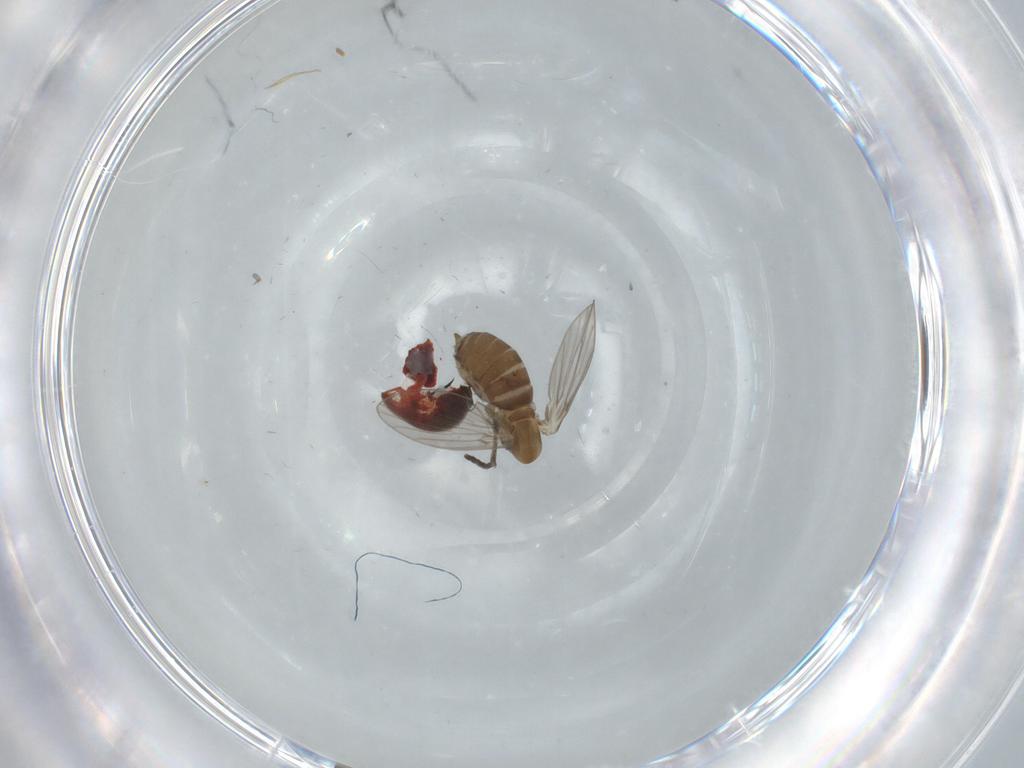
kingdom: Animalia
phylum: Arthropoda
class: Insecta
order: Diptera
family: Dolichopodidae
